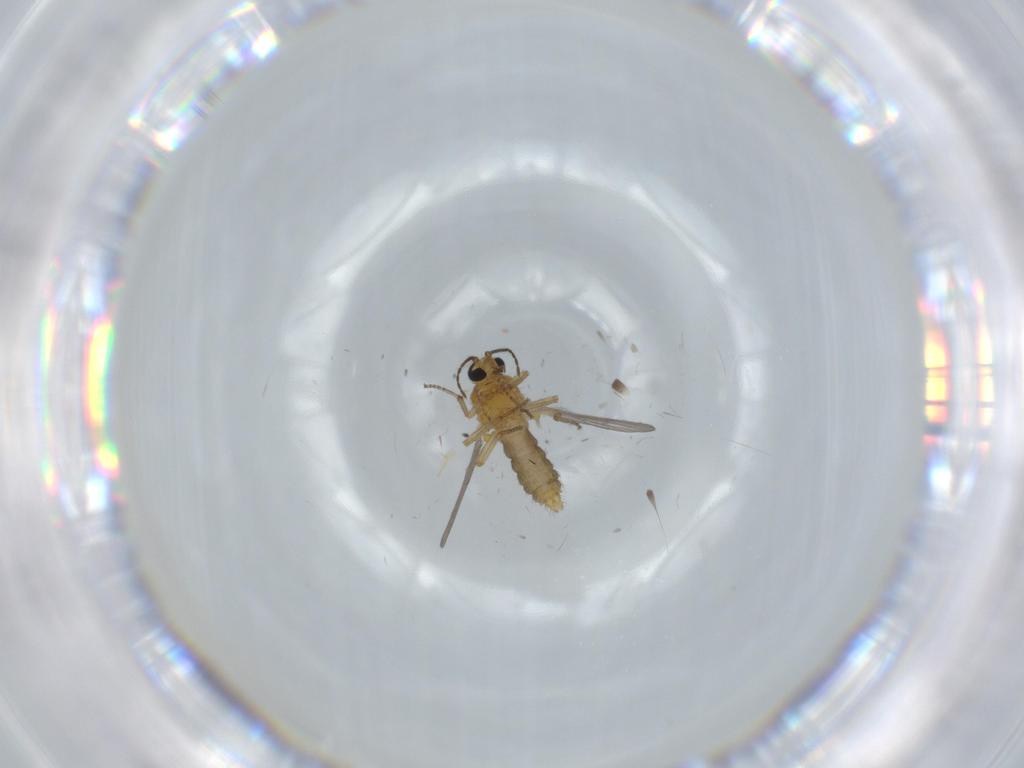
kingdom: Animalia
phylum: Arthropoda
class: Insecta
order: Diptera
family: Ceratopogonidae
